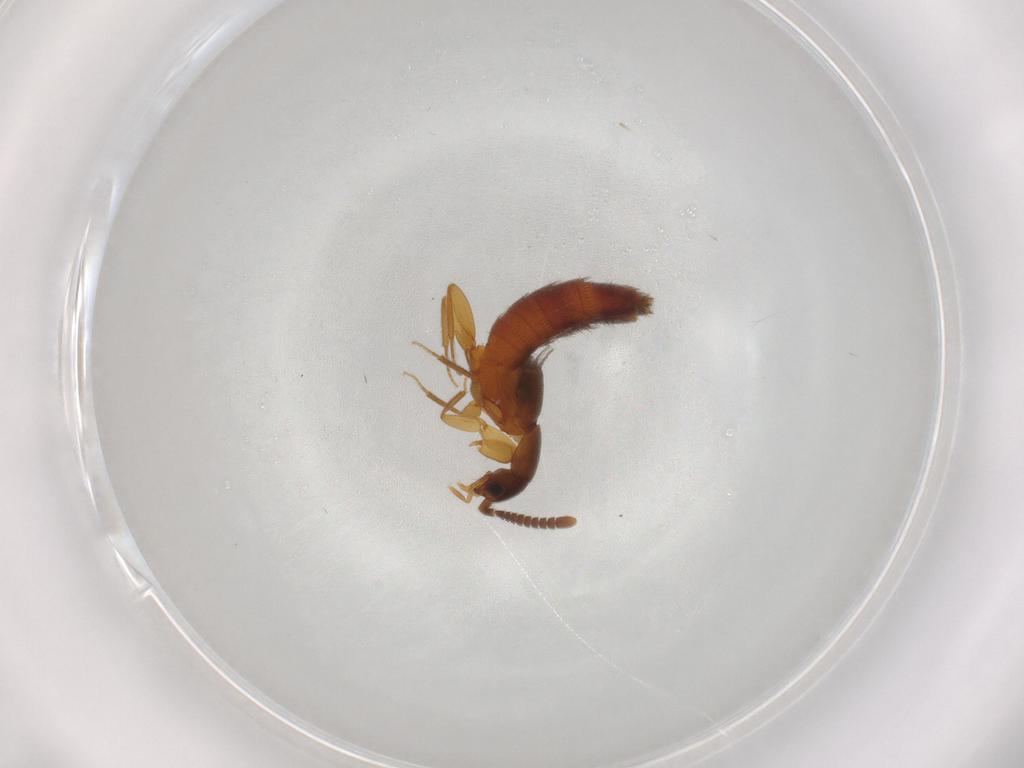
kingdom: Animalia
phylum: Arthropoda
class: Insecta
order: Coleoptera
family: Staphylinidae
